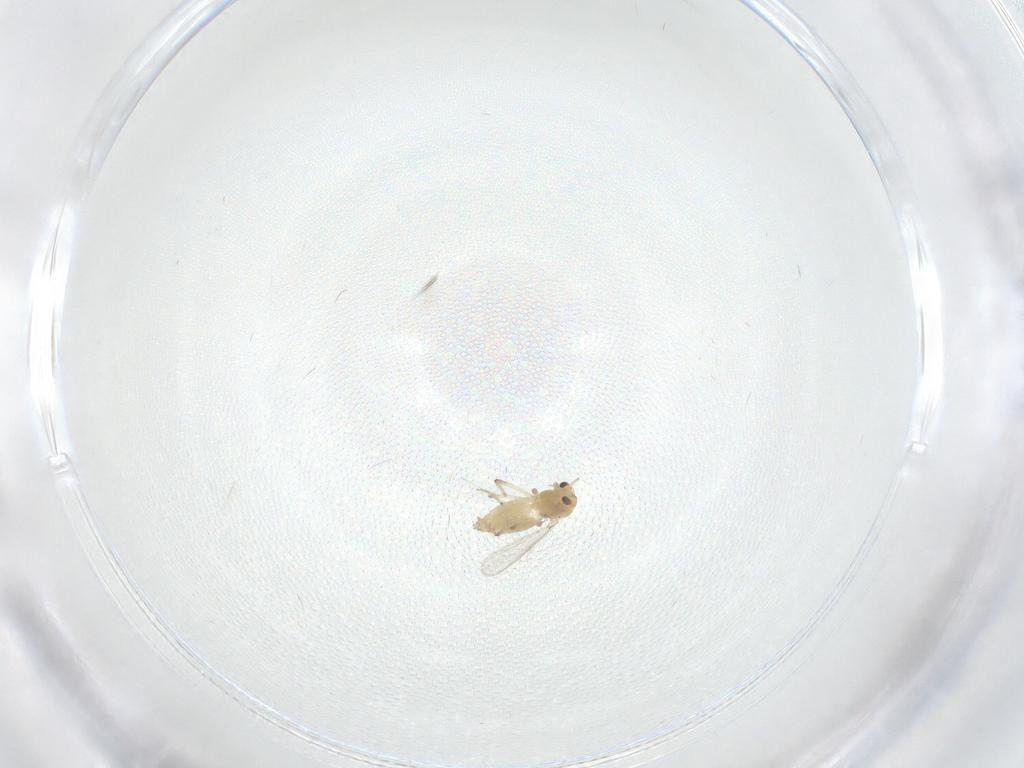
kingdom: Animalia
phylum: Arthropoda
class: Insecta
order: Diptera
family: Chironomidae
